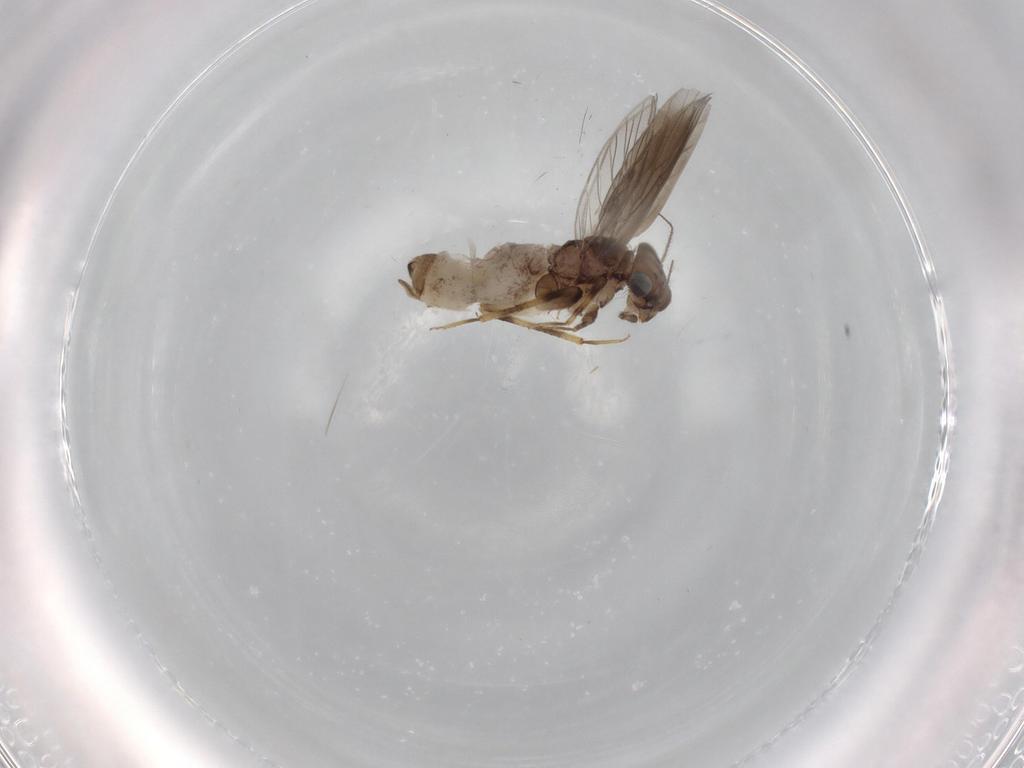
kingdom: Animalia
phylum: Arthropoda
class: Insecta
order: Psocodea
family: Lepidopsocidae
